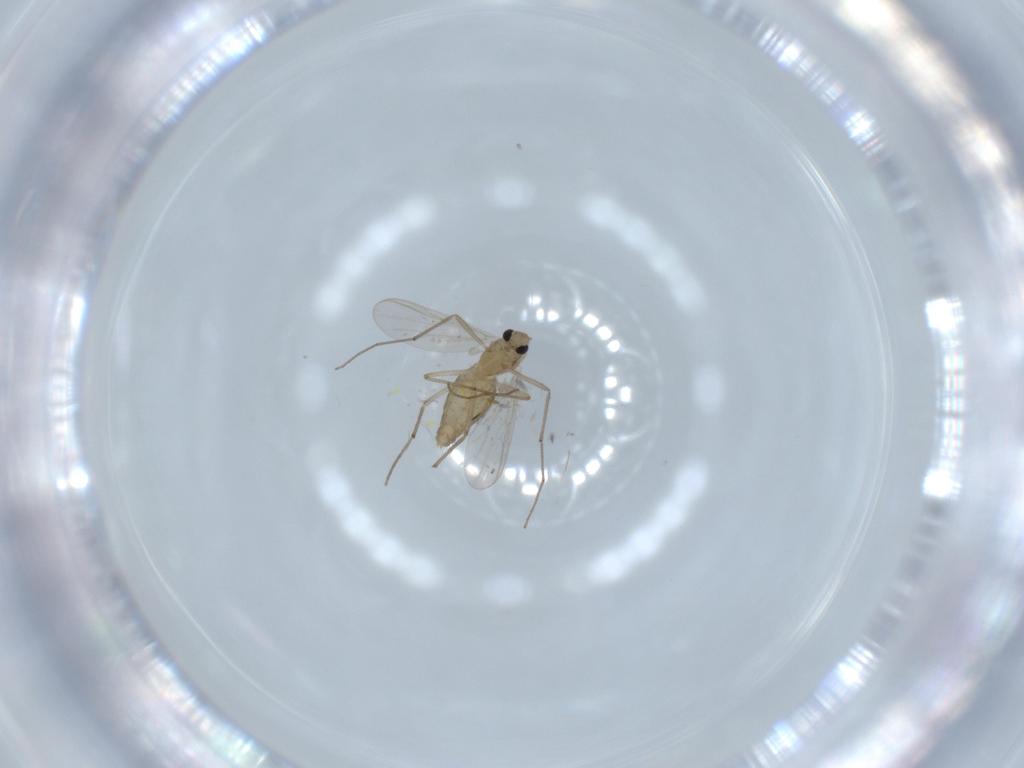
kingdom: Animalia
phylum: Arthropoda
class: Insecta
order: Diptera
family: Chironomidae
